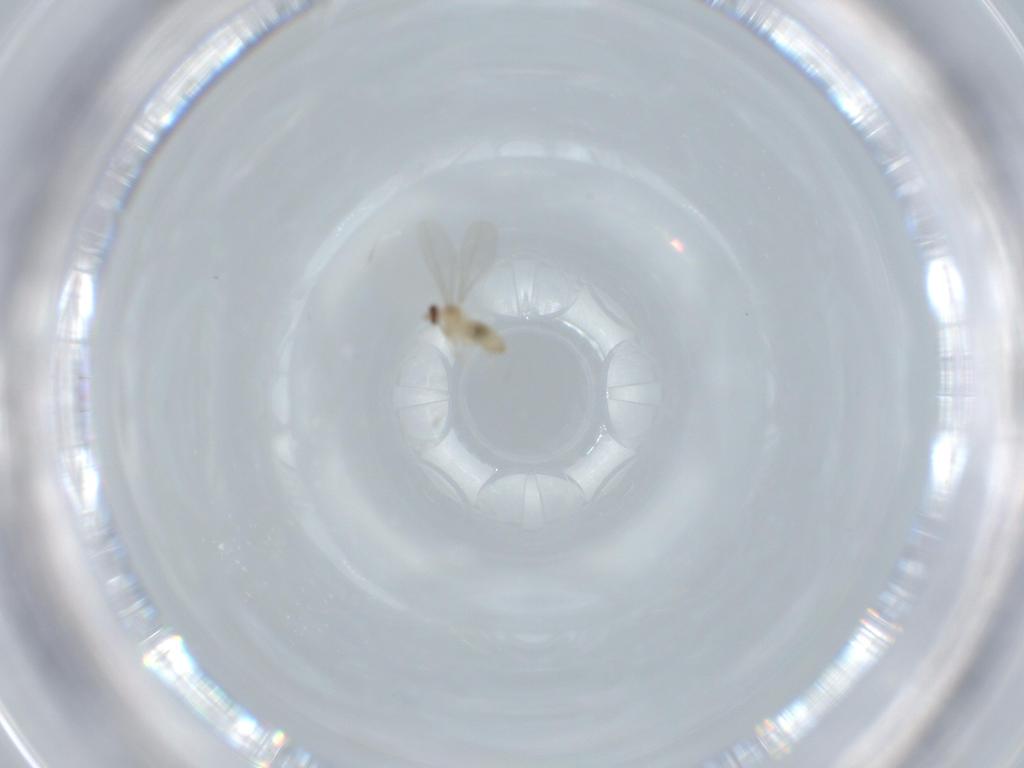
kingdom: Animalia
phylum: Arthropoda
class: Insecta
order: Diptera
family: Cecidomyiidae
